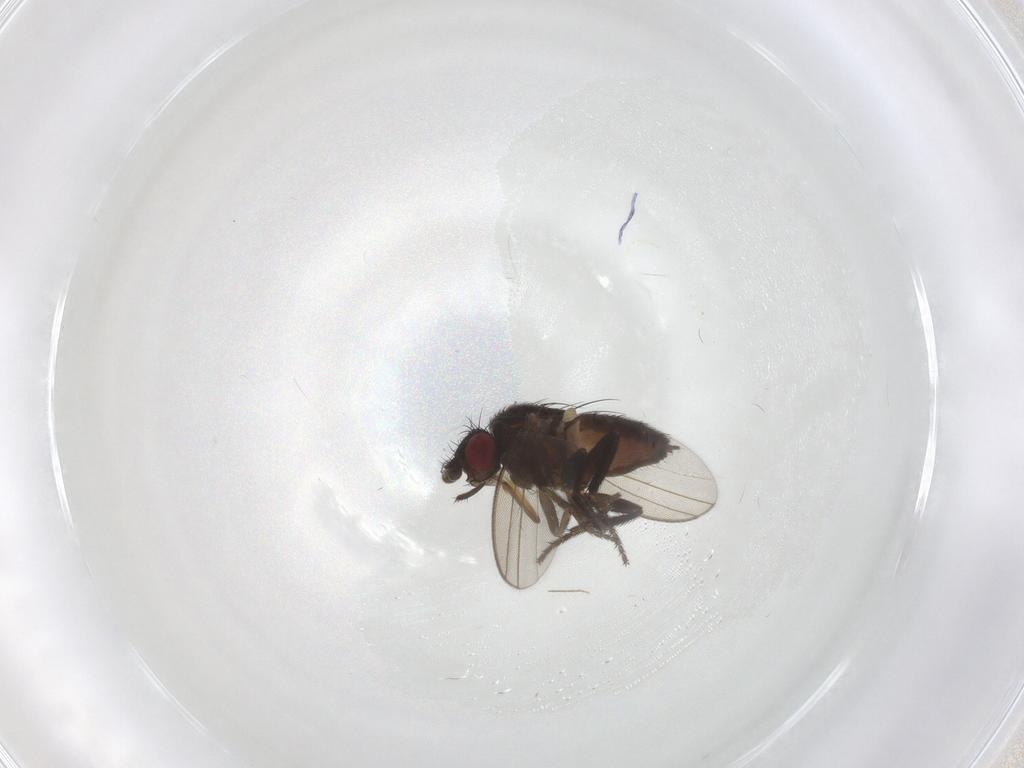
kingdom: Animalia
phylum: Arthropoda
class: Insecta
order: Diptera
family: Milichiidae
